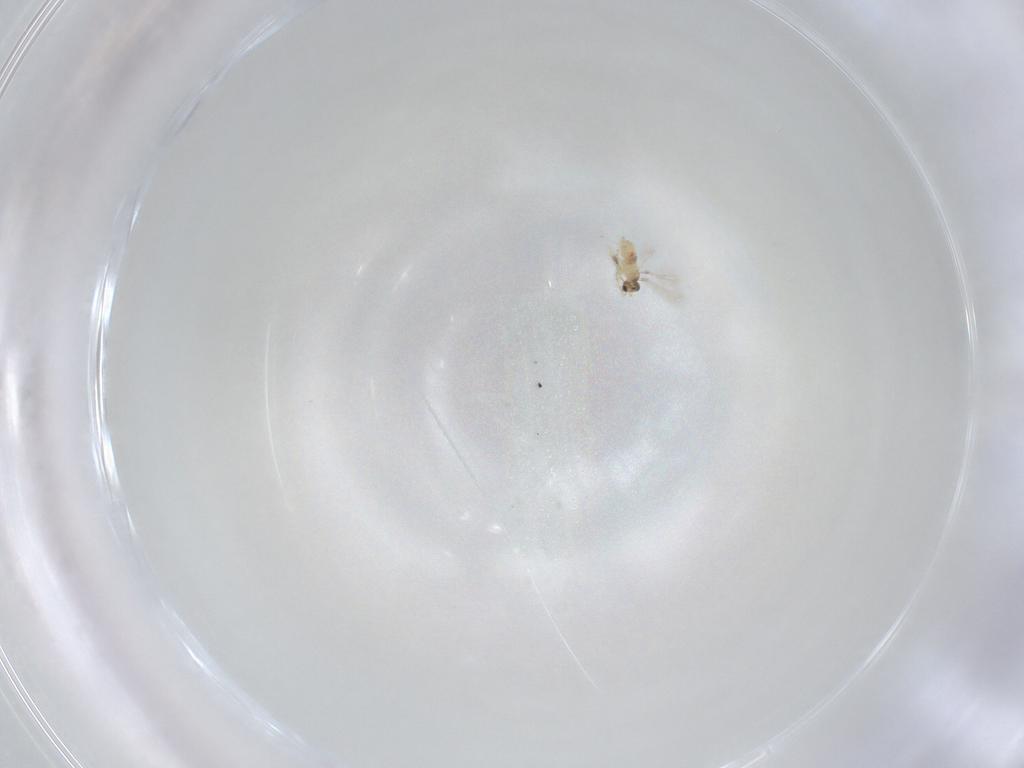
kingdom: Animalia
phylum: Arthropoda
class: Insecta
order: Hymenoptera
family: Mymaridae
